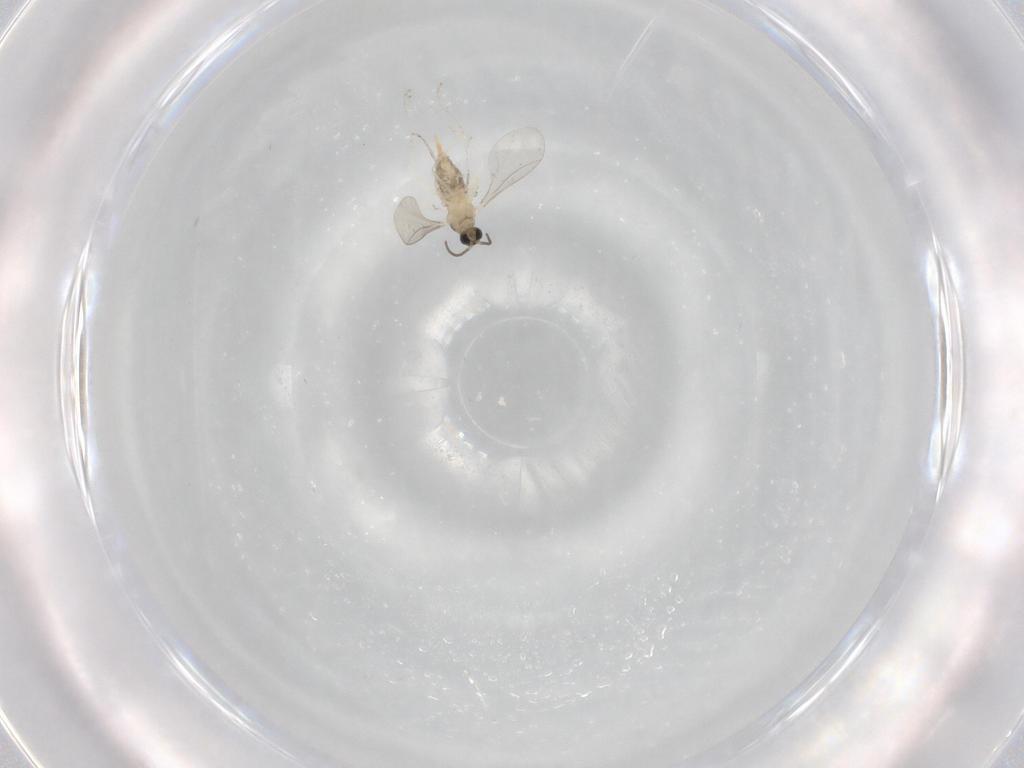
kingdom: Animalia
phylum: Arthropoda
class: Insecta
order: Diptera
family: Cecidomyiidae
